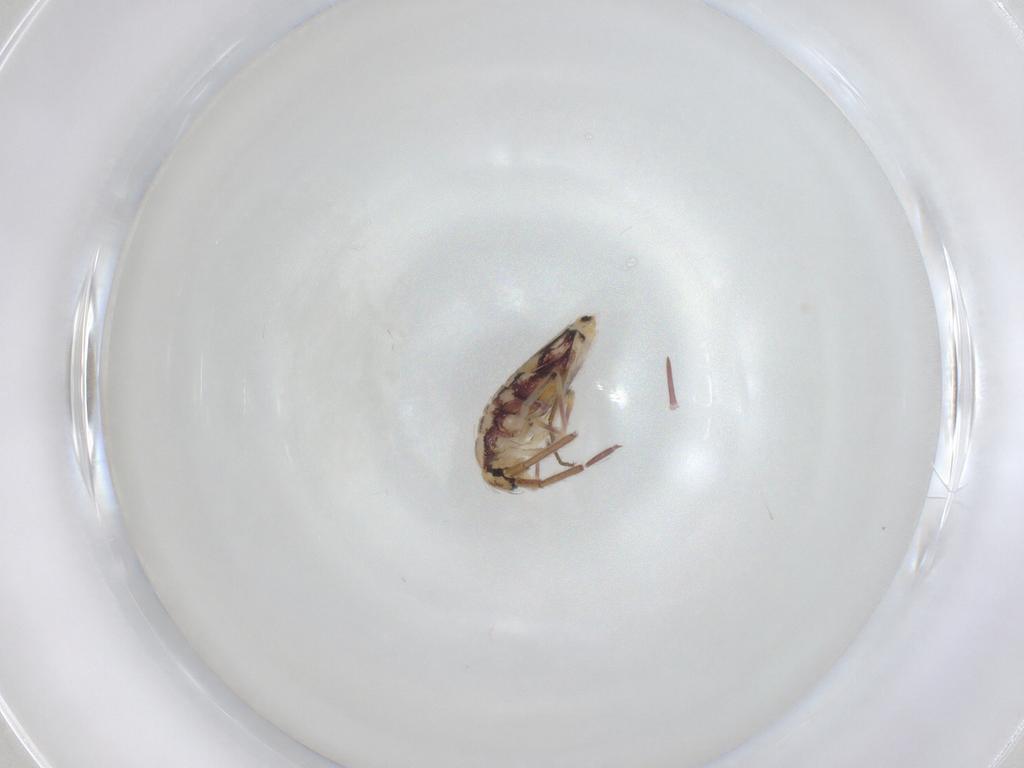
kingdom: Animalia
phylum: Arthropoda
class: Collembola
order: Entomobryomorpha
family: Entomobryidae
